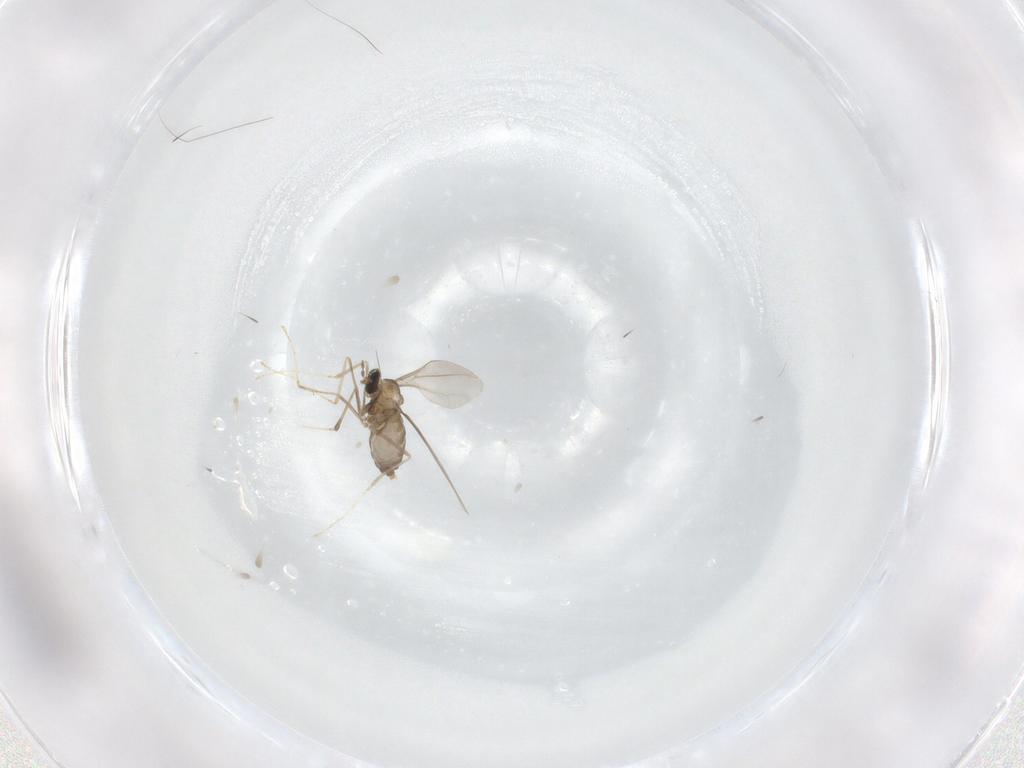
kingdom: Animalia
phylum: Arthropoda
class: Insecta
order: Diptera
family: Cecidomyiidae
